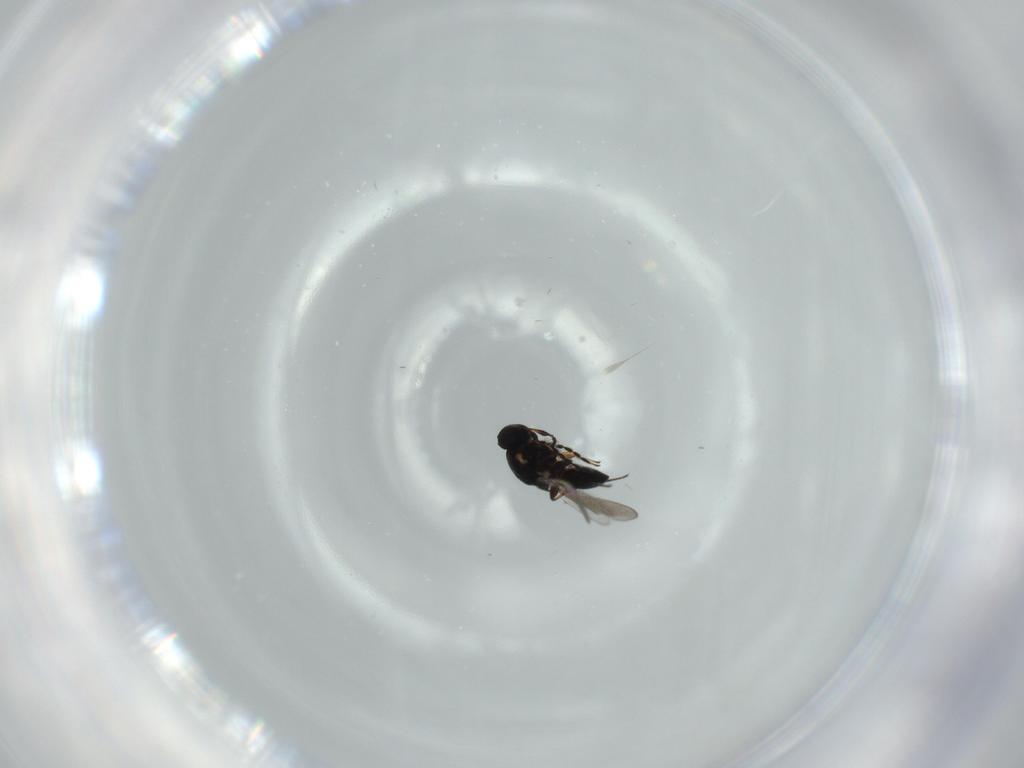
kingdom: Animalia
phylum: Arthropoda
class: Insecta
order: Hymenoptera
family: Platygastridae
